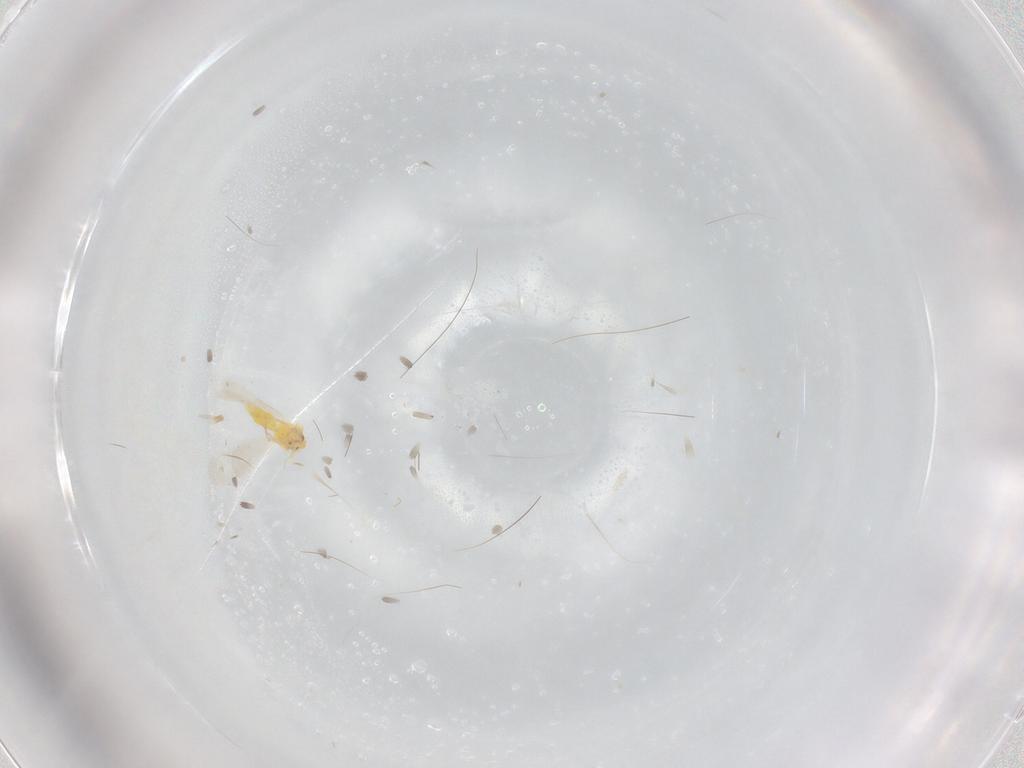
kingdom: Animalia
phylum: Arthropoda
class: Insecta
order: Hemiptera
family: Aleyrodidae
